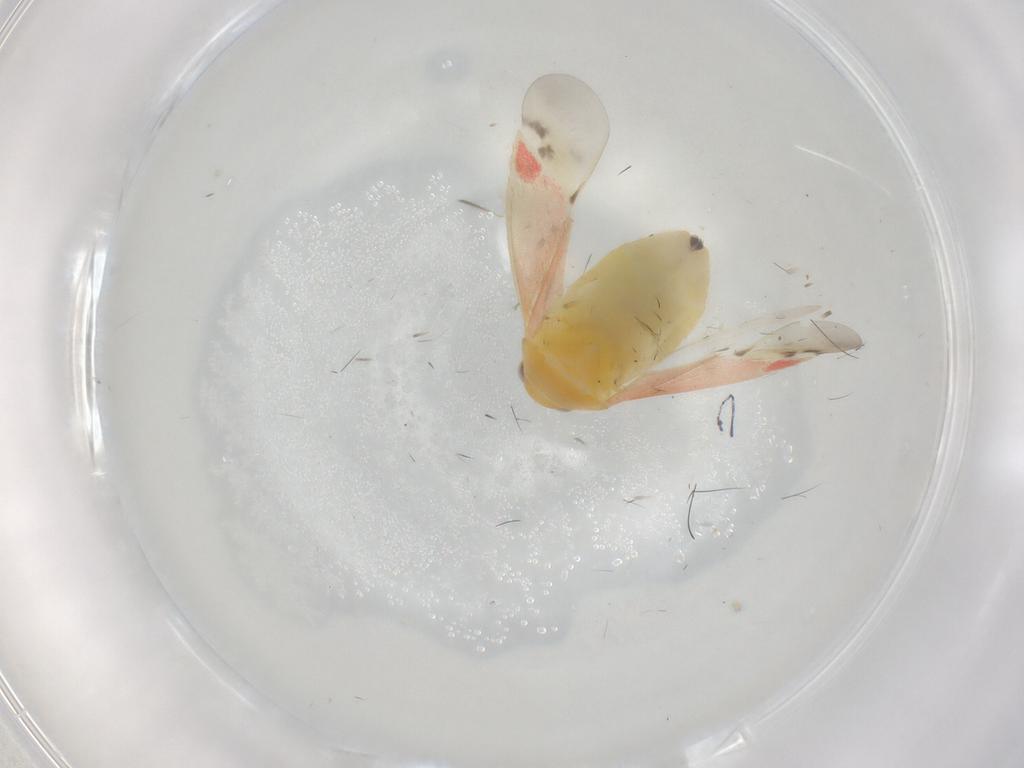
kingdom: Animalia
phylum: Arthropoda
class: Insecta
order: Hemiptera
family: Miridae
